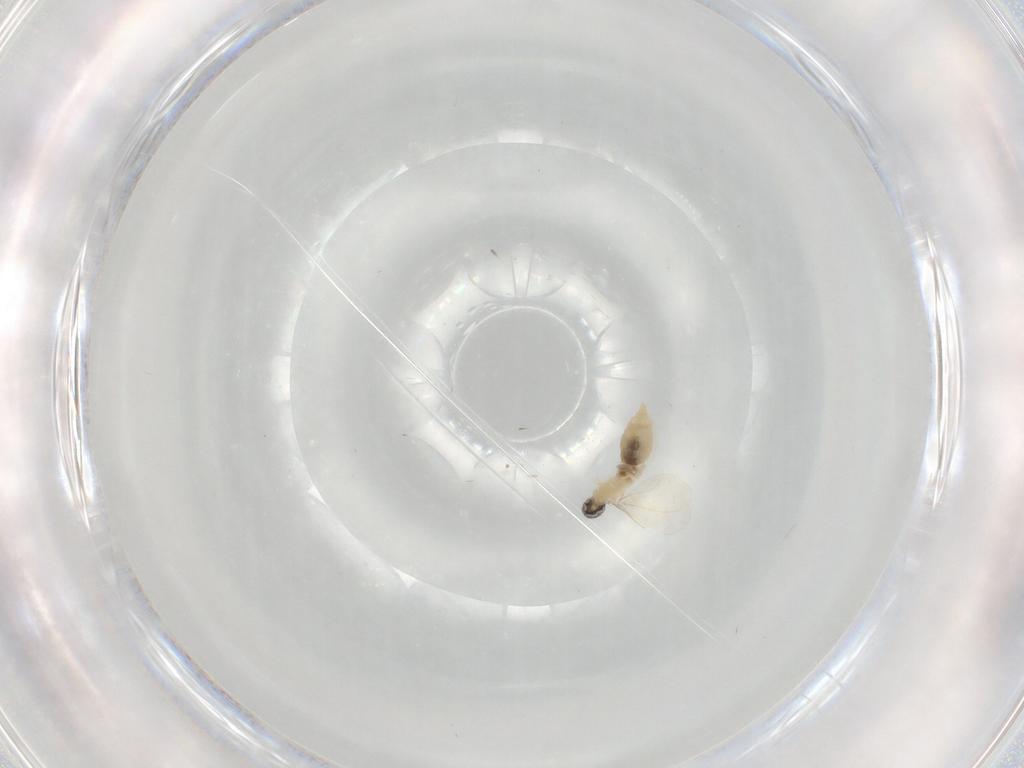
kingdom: Animalia
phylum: Arthropoda
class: Insecta
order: Diptera
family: Cecidomyiidae
